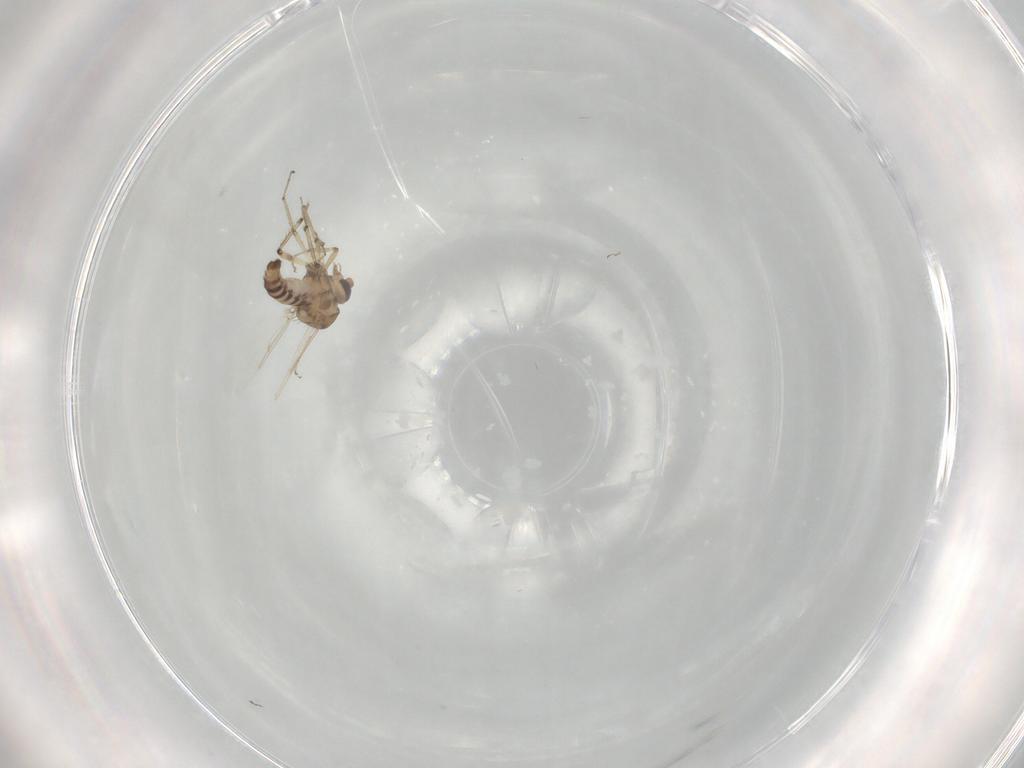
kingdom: Animalia
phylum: Arthropoda
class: Insecta
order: Diptera
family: Ceratopogonidae
